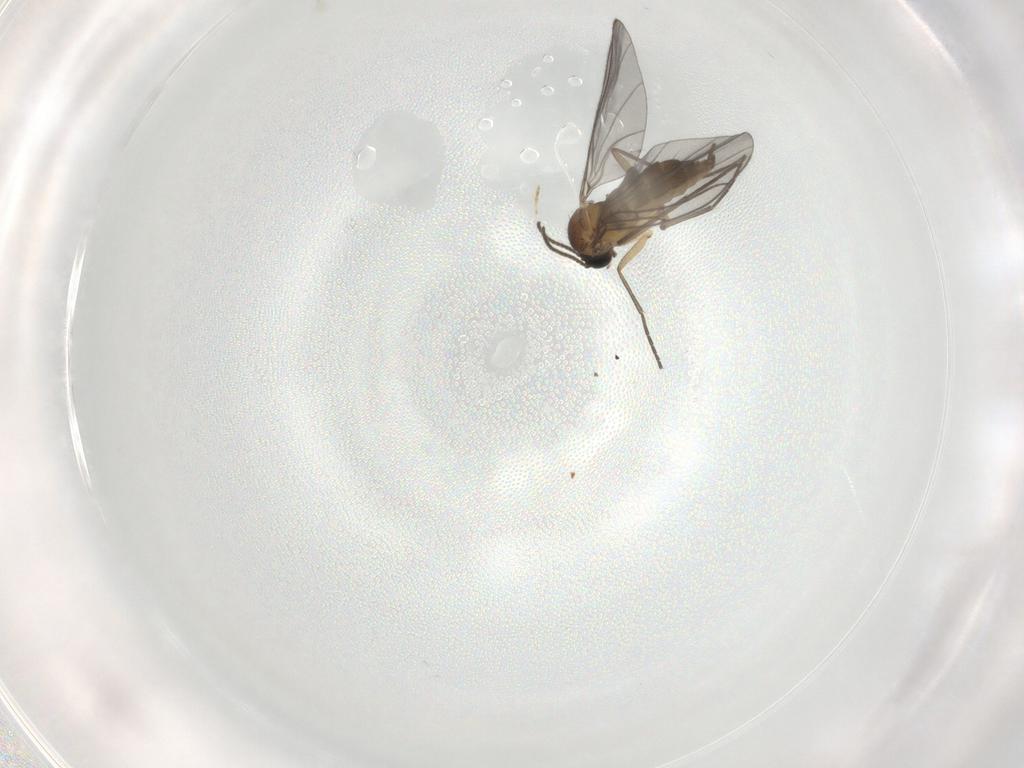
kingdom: Animalia
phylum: Arthropoda
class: Insecta
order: Diptera
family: Sciaridae
